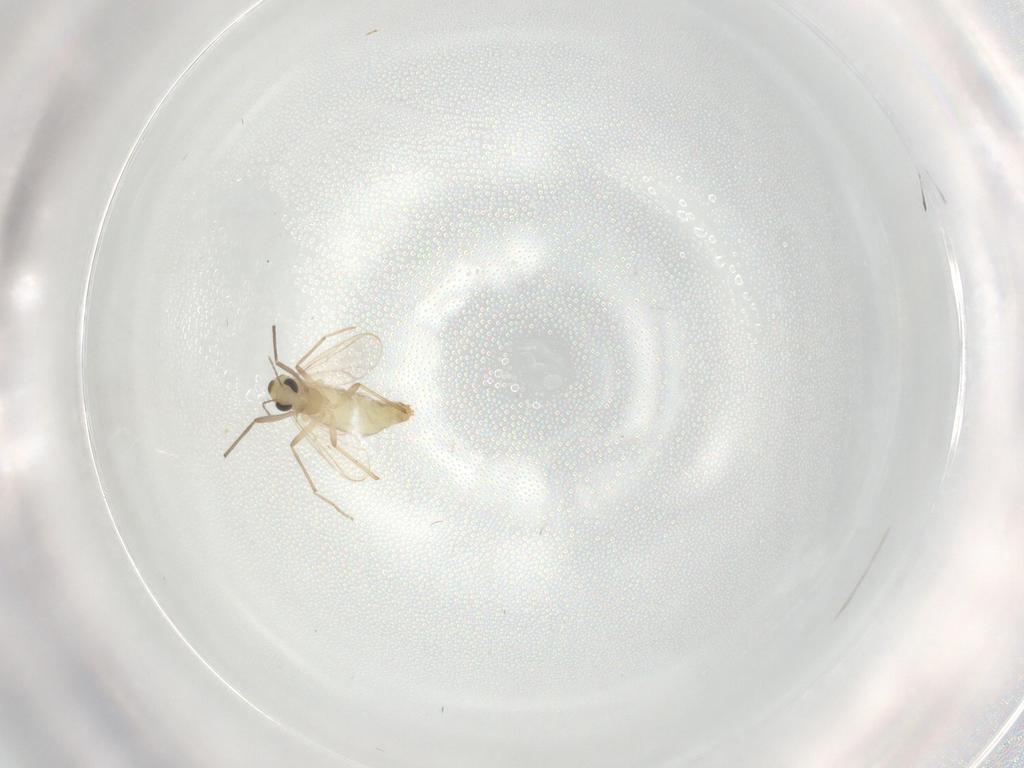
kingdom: Animalia
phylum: Arthropoda
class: Insecta
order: Diptera
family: Chironomidae
